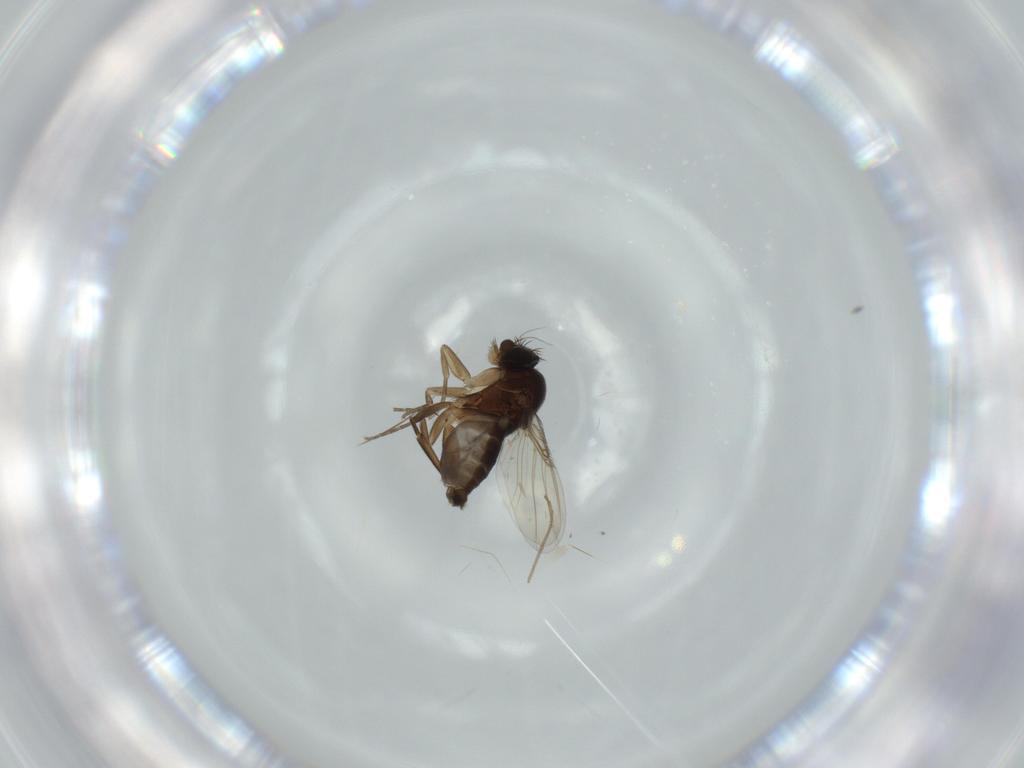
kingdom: Animalia
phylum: Arthropoda
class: Insecta
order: Diptera
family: Phoridae
